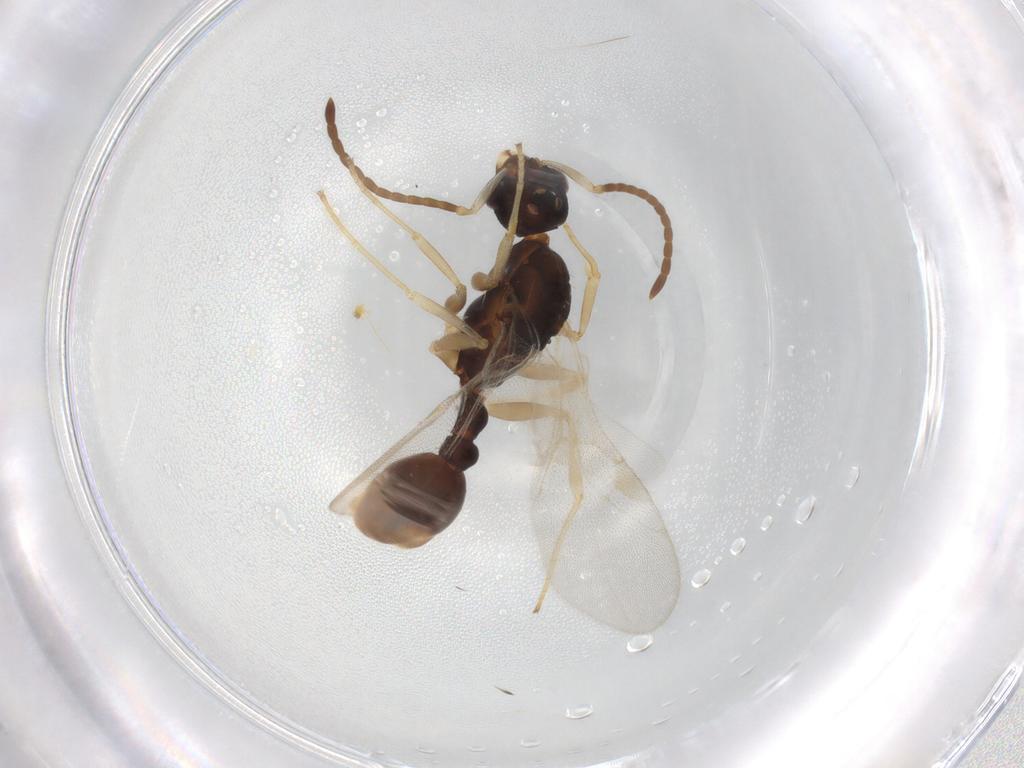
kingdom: Animalia
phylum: Arthropoda
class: Insecta
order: Hymenoptera
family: Formicidae
